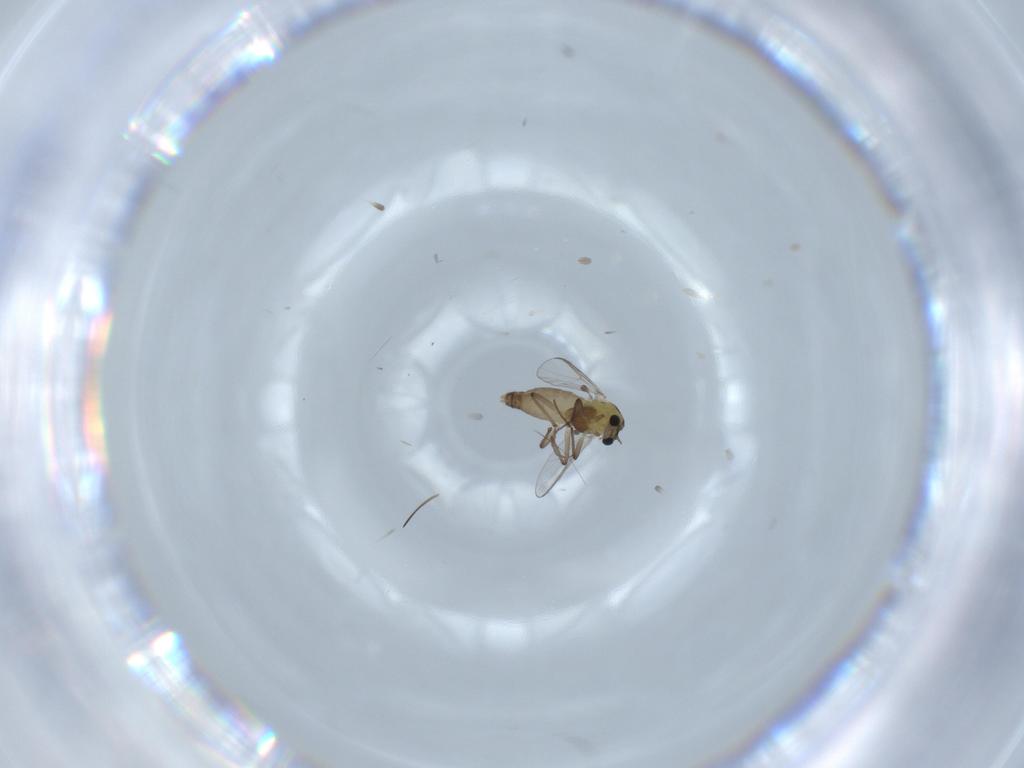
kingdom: Animalia
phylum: Arthropoda
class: Insecta
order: Diptera
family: Chironomidae
